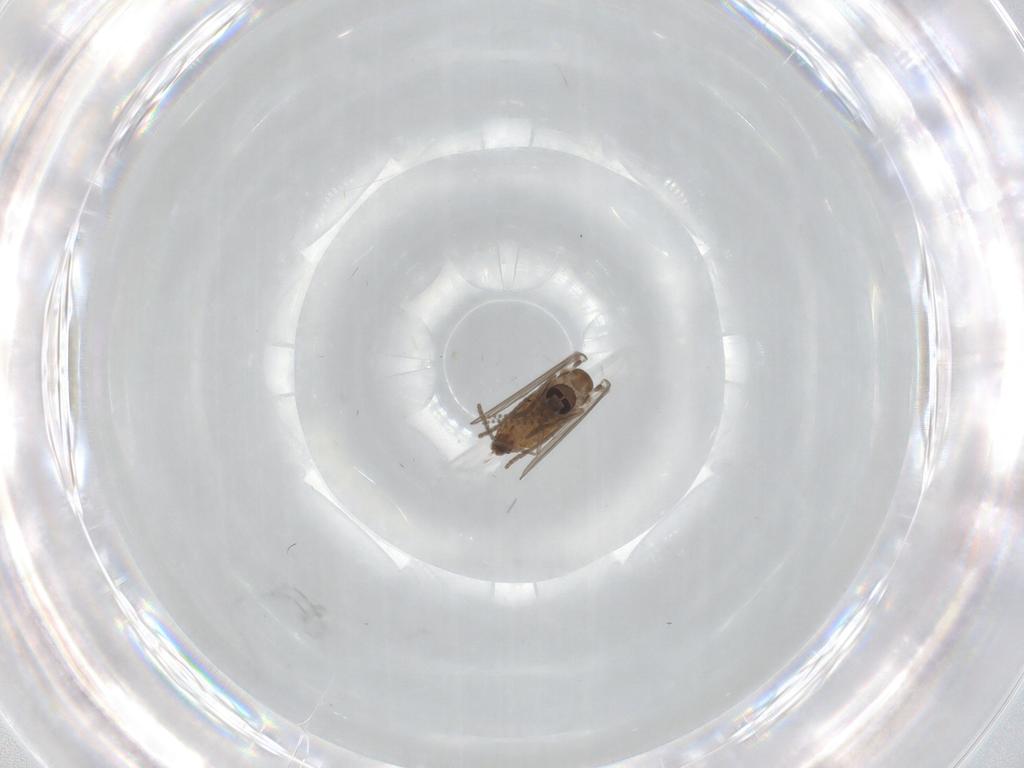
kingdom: Animalia
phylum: Arthropoda
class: Insecta
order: Diptera
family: Psychodidae
